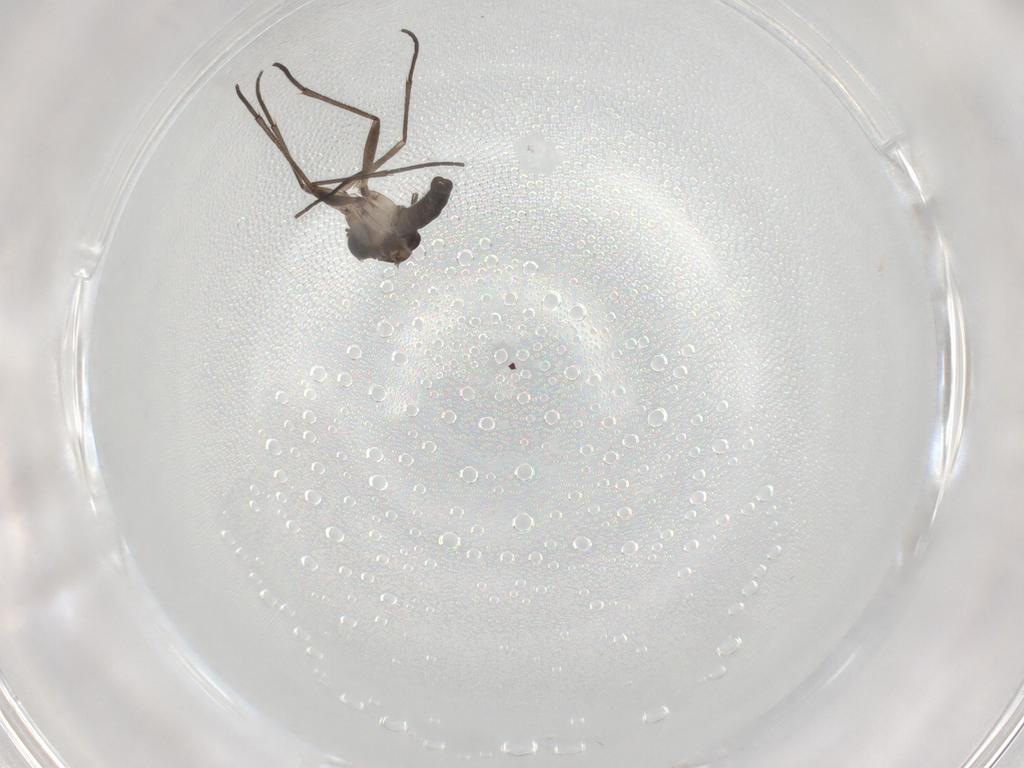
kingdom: Animalia
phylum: Arthropoda
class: Insecta
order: Diptera
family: Sciaridae
